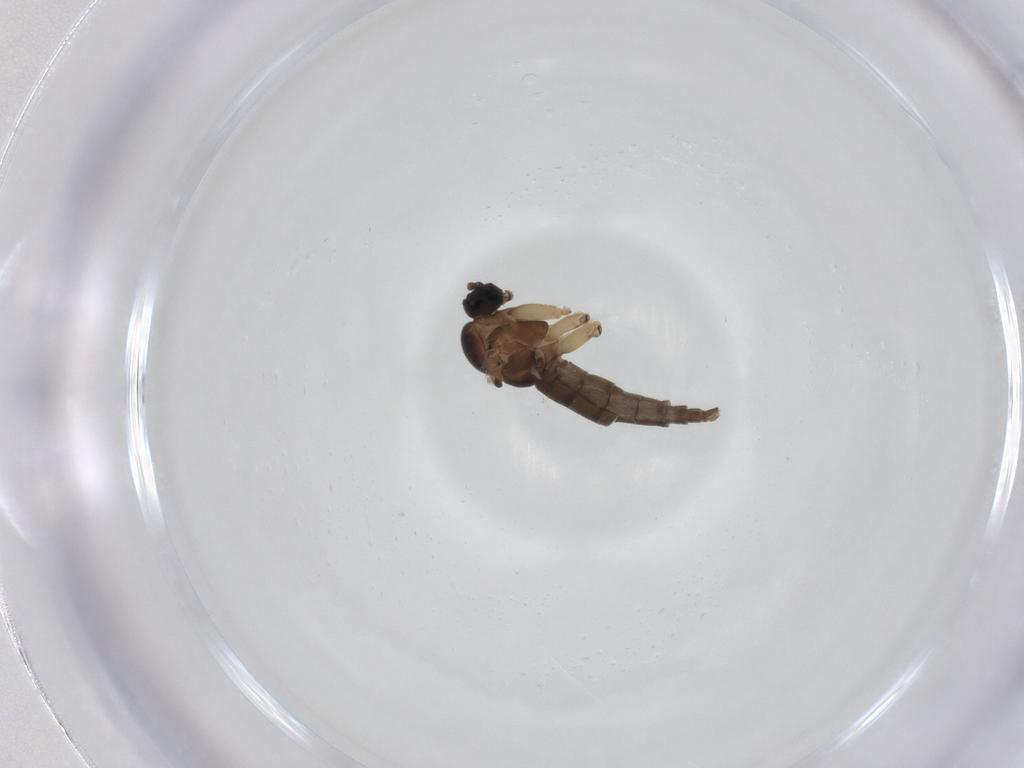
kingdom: Animalia
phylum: Arthropoda
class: Insecta
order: Diptera
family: Sciaridae
